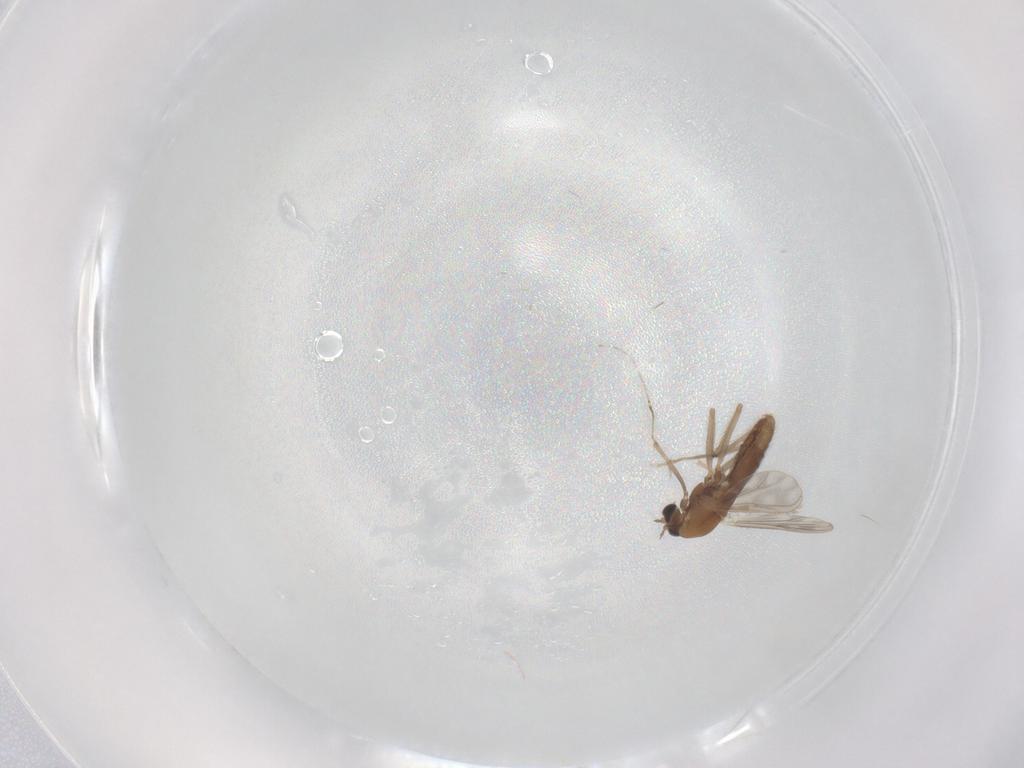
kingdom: Animalia
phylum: Arthropoda
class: Insecta
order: Diptera
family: Chironomidae
